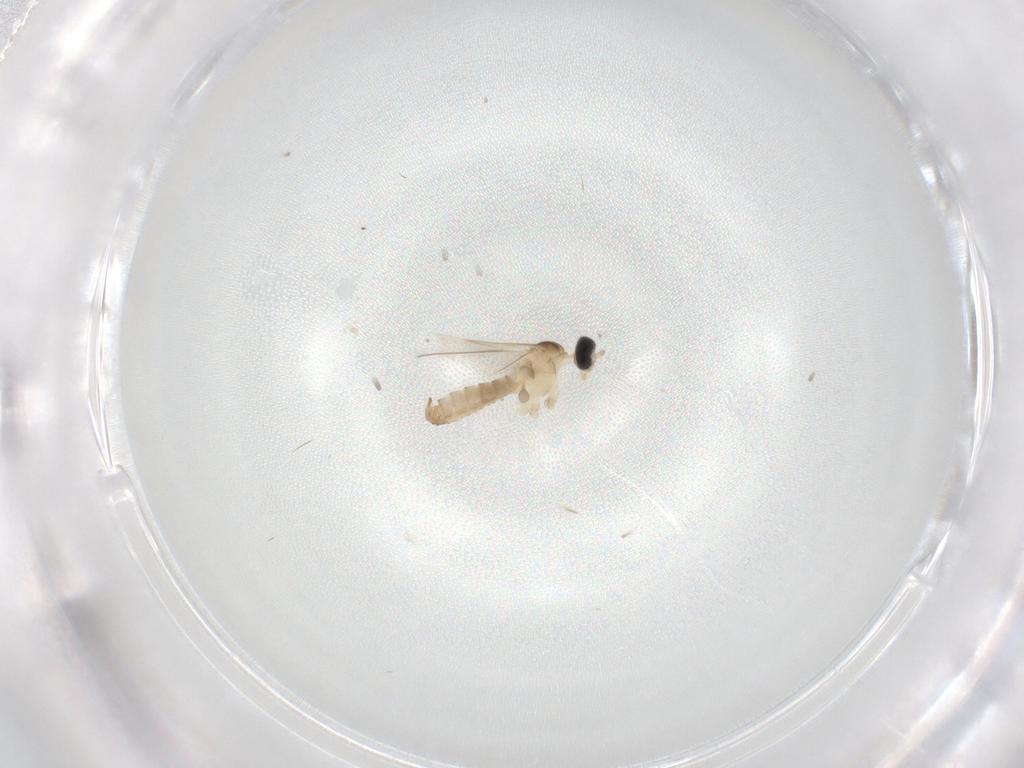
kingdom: Animalia
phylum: Arthropoda
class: Insecta
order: Diptera
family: Cecidomyiidae
